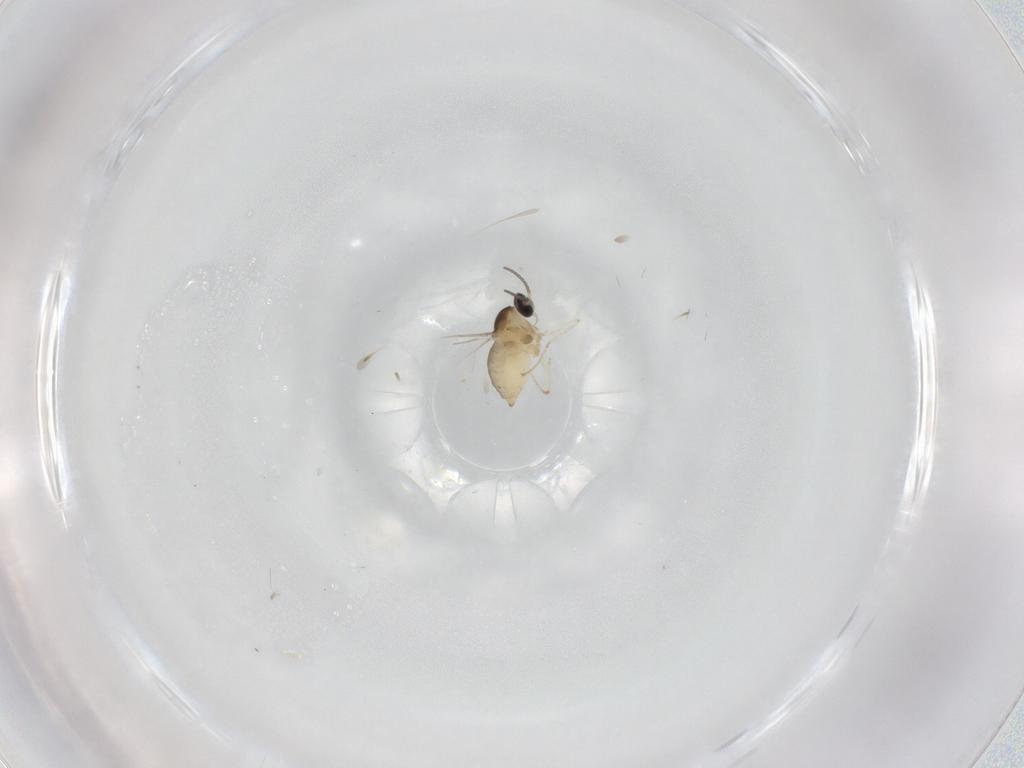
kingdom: Animalia
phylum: Arthropoda
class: Insecta
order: Diptera
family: Cecidomyiidae
